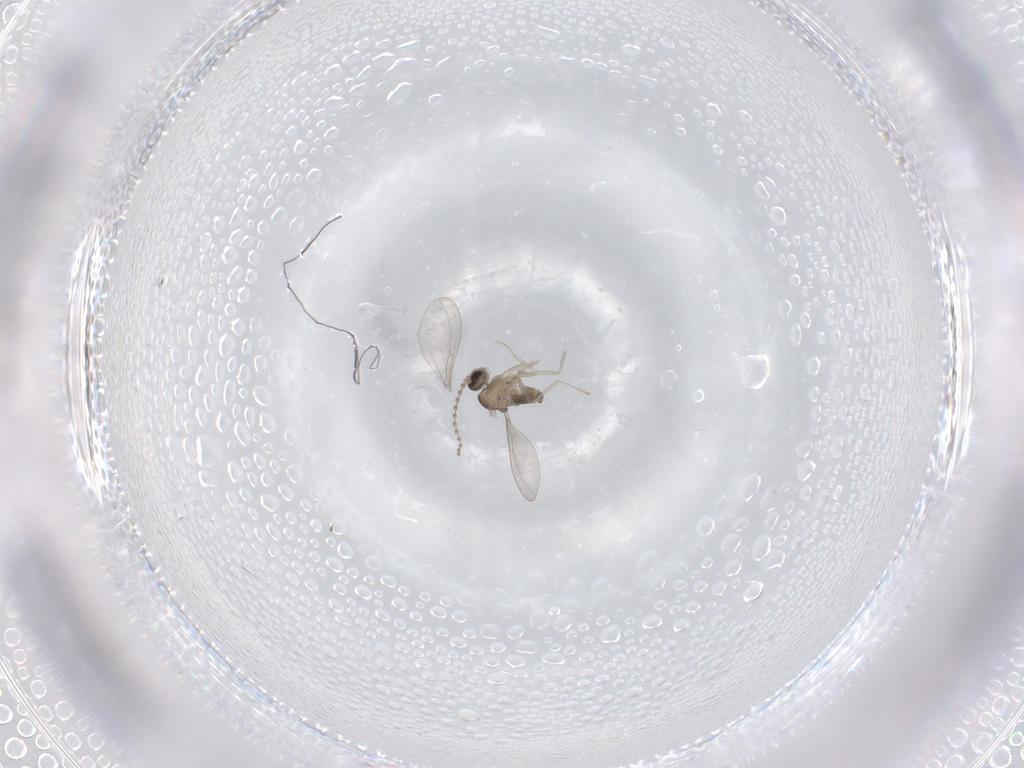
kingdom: Animalia
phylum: Arthropoda
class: Insecta
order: Diptera
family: Cecidomyiidae
